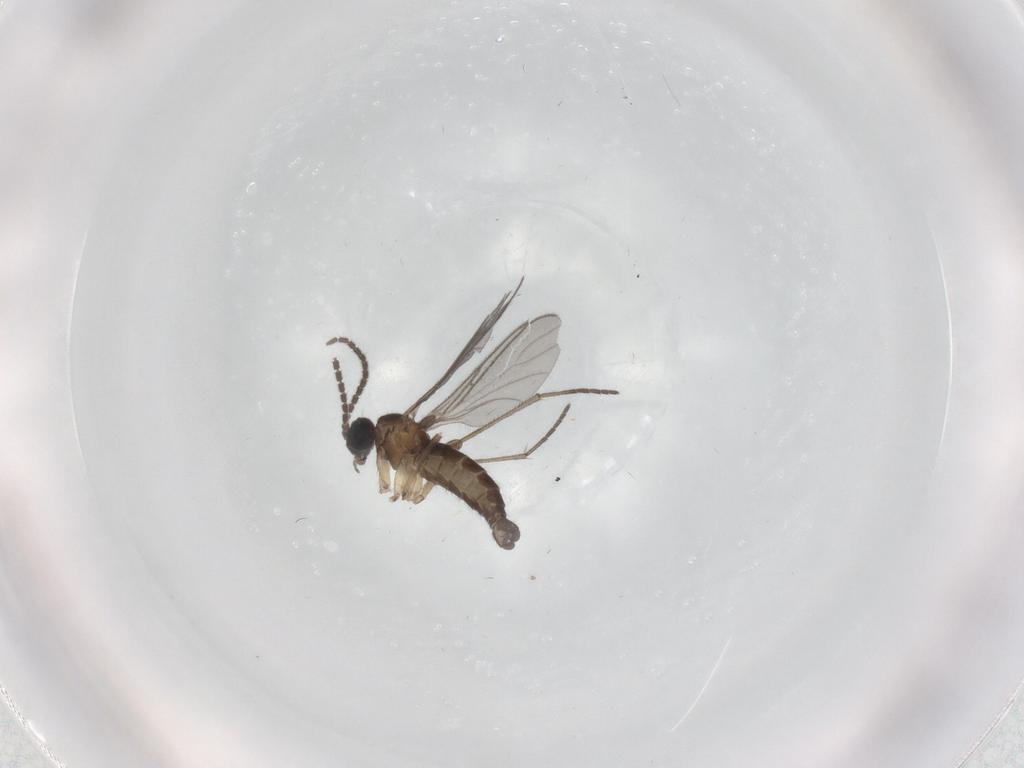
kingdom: Animalia
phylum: Arthropoda
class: Insecta
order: Diptera
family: Sciaridae
